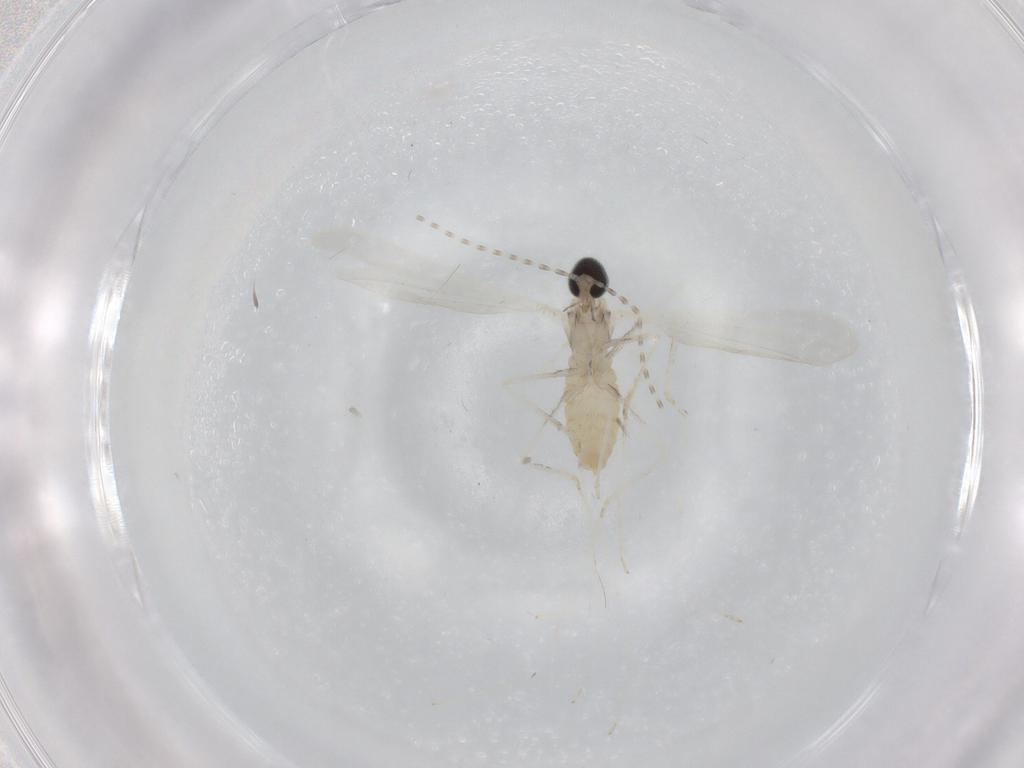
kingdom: Animalia
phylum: Arthropoda
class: Insecta
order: Diptera
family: Cecidomyiidae
